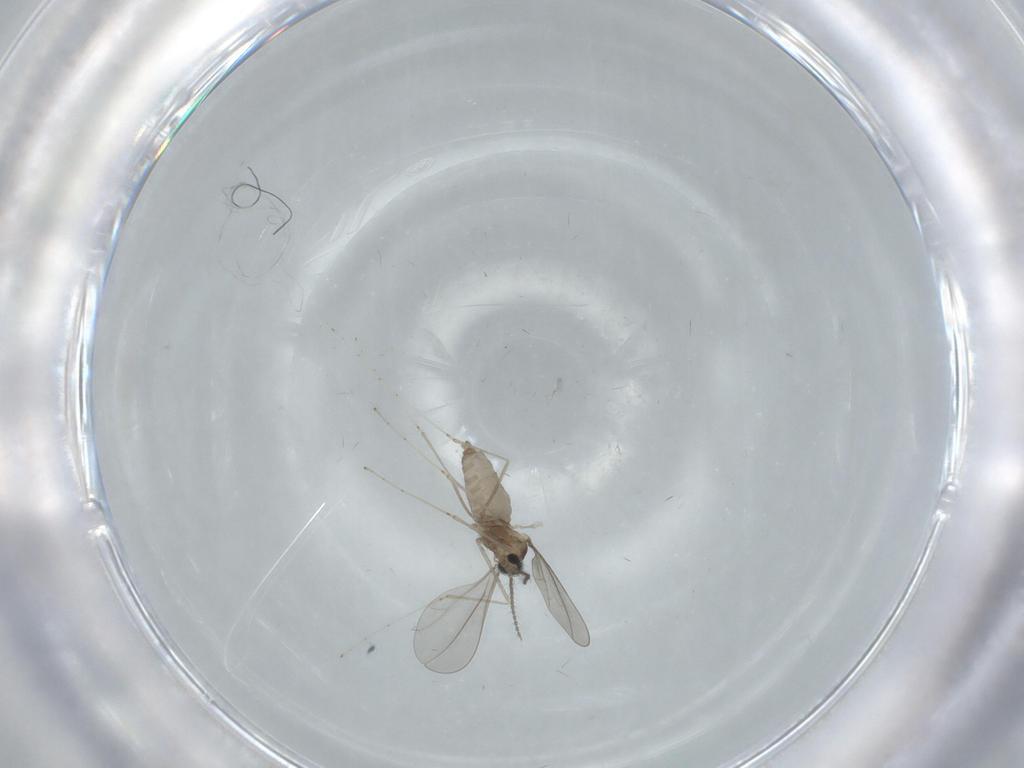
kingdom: Animalia
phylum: Arthropoda
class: Insecta
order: Diptera
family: Cecidomyiidae
